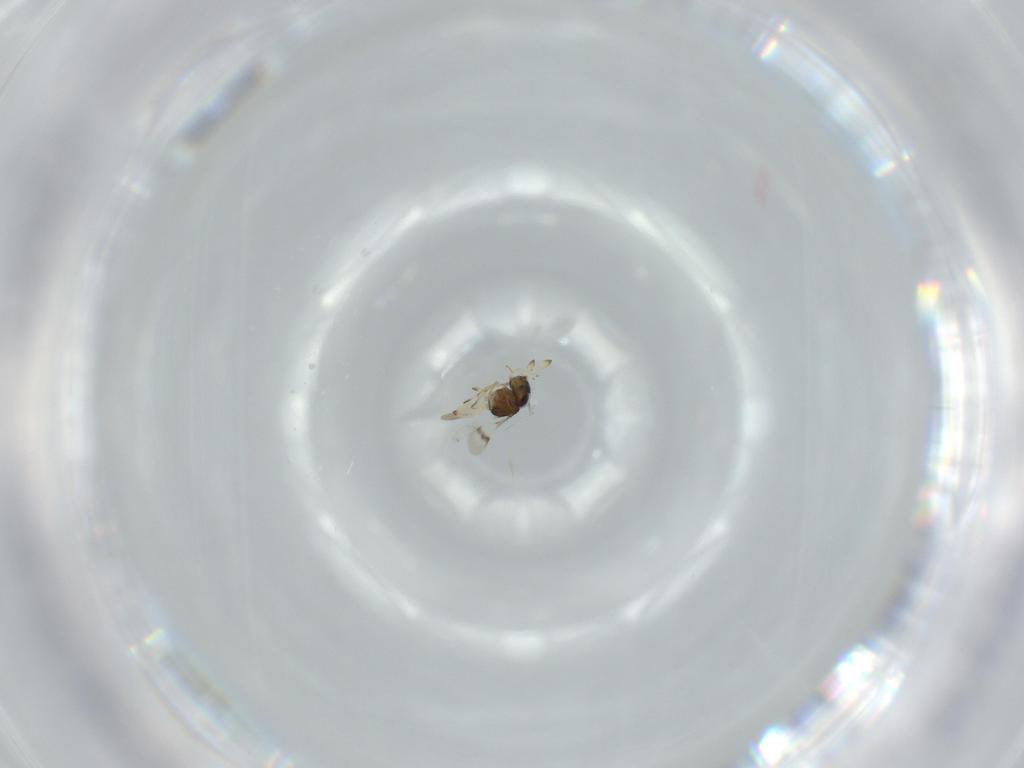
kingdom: Animalia
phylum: Arthropoda
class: Insecta
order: Hymenoptera
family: Scelionidae
